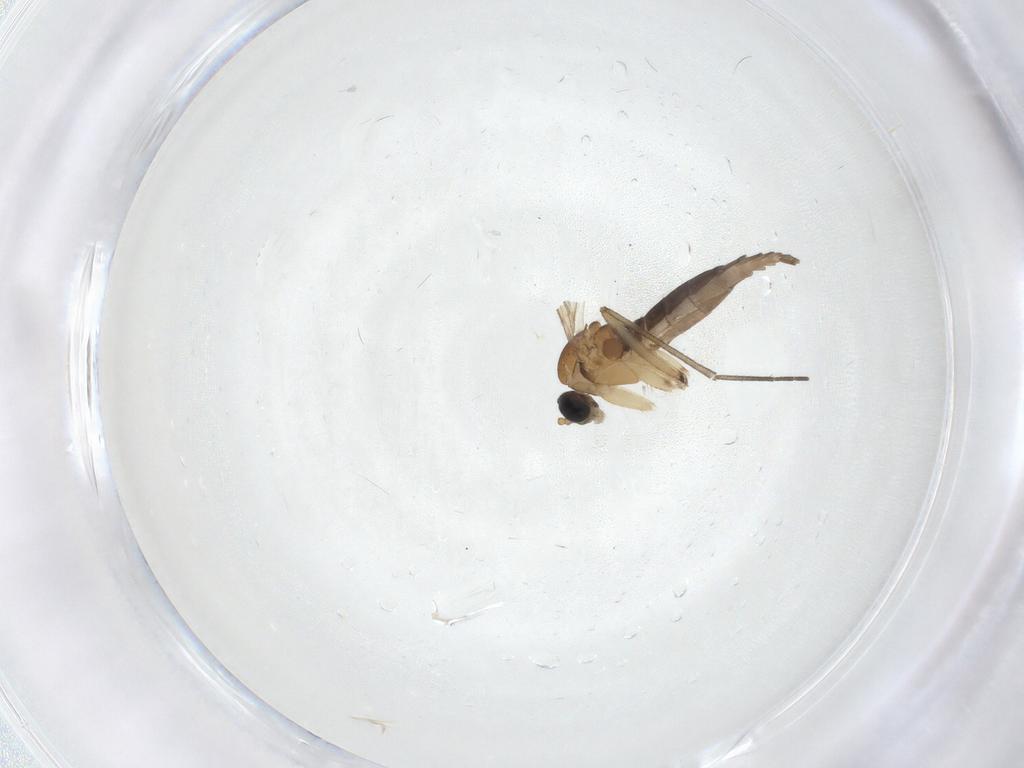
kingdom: Animalia
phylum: Arthropoda
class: Insecta
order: Diptera
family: Sciaridae
